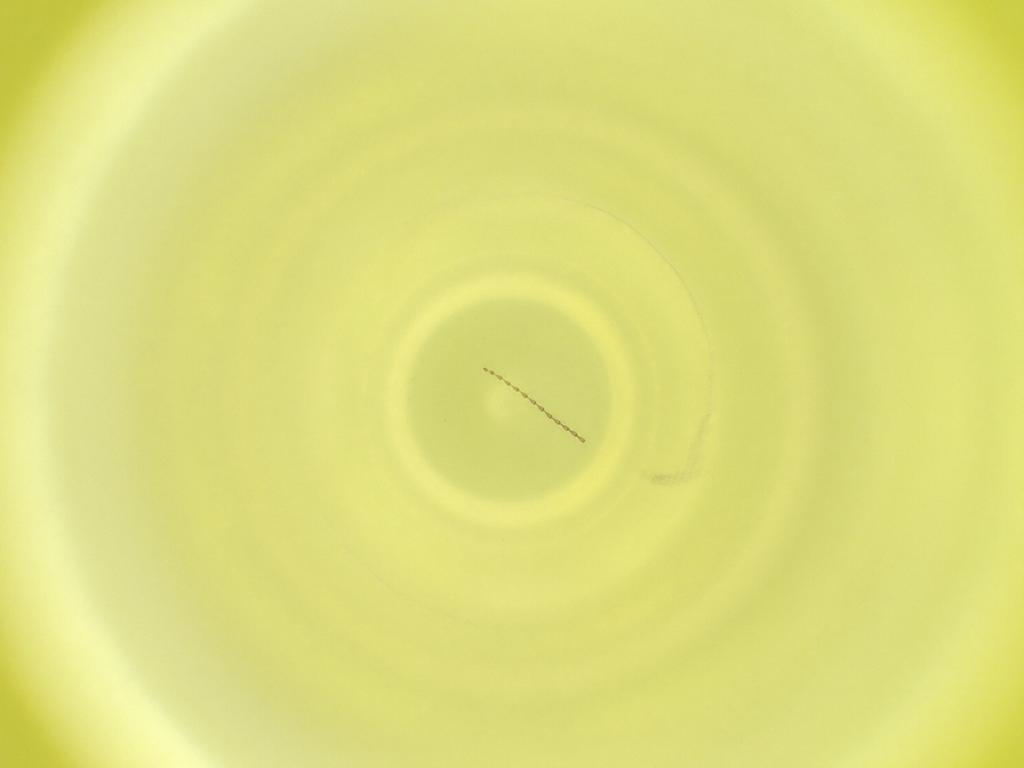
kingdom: Animalia
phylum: Arthropoda
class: Insecta
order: Diptera
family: Cecidomyiidae
